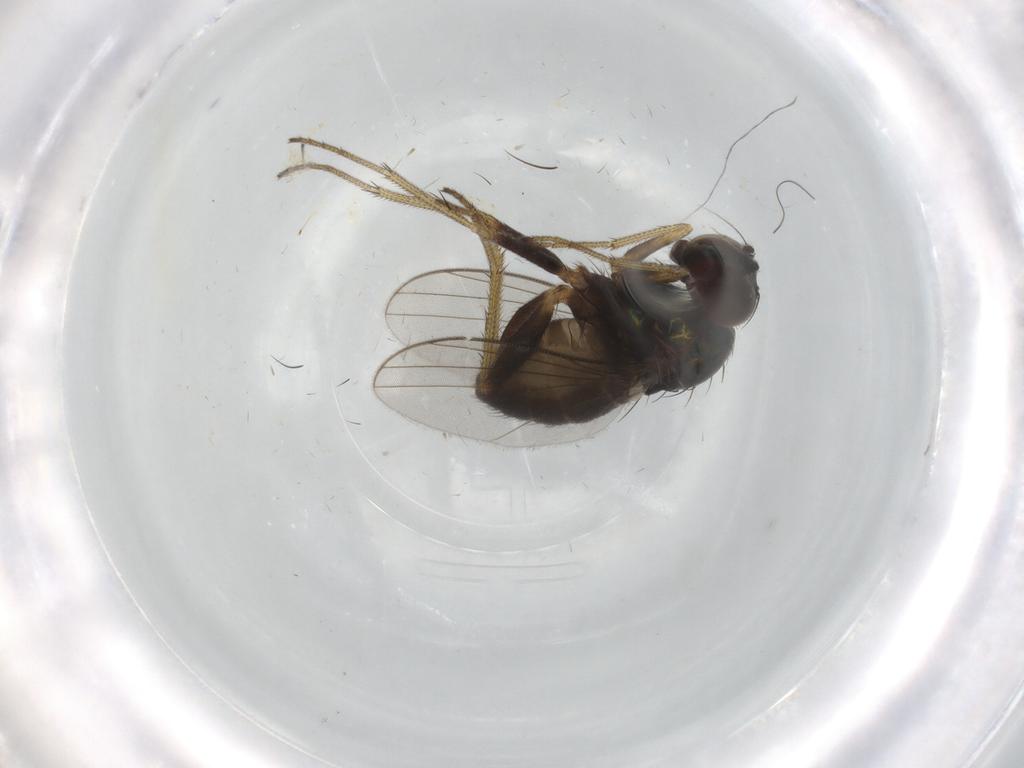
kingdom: Animalia
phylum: Arthropoda
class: Insecta
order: Diptera
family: Dolichopodidae
